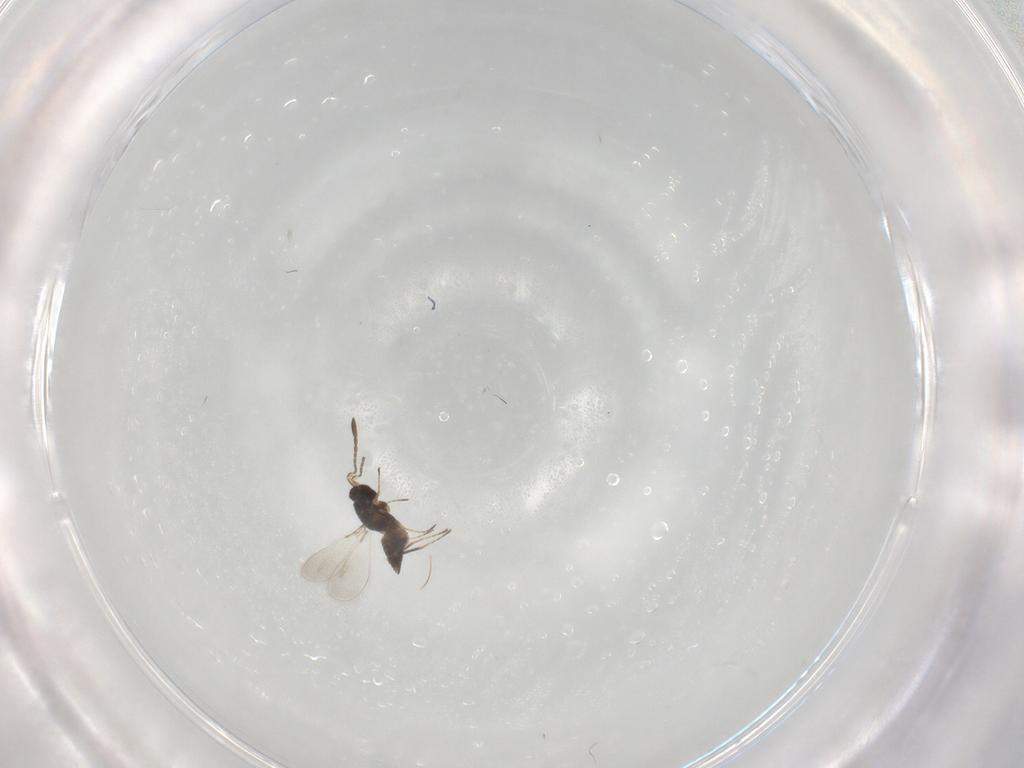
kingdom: Animalia
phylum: Arthropoda
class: Insecta
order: Hymenoptera
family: Mymaridae
